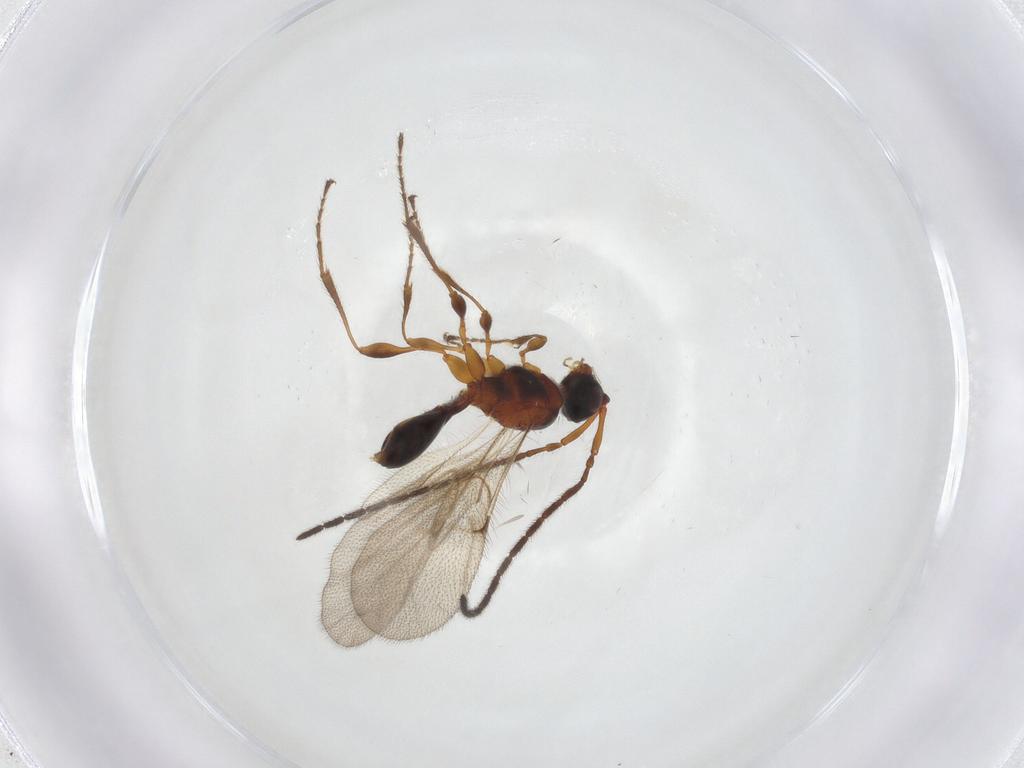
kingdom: Animalia
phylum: Arthropoda
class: Insecta
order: Hymenoptera
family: Diapriidae
